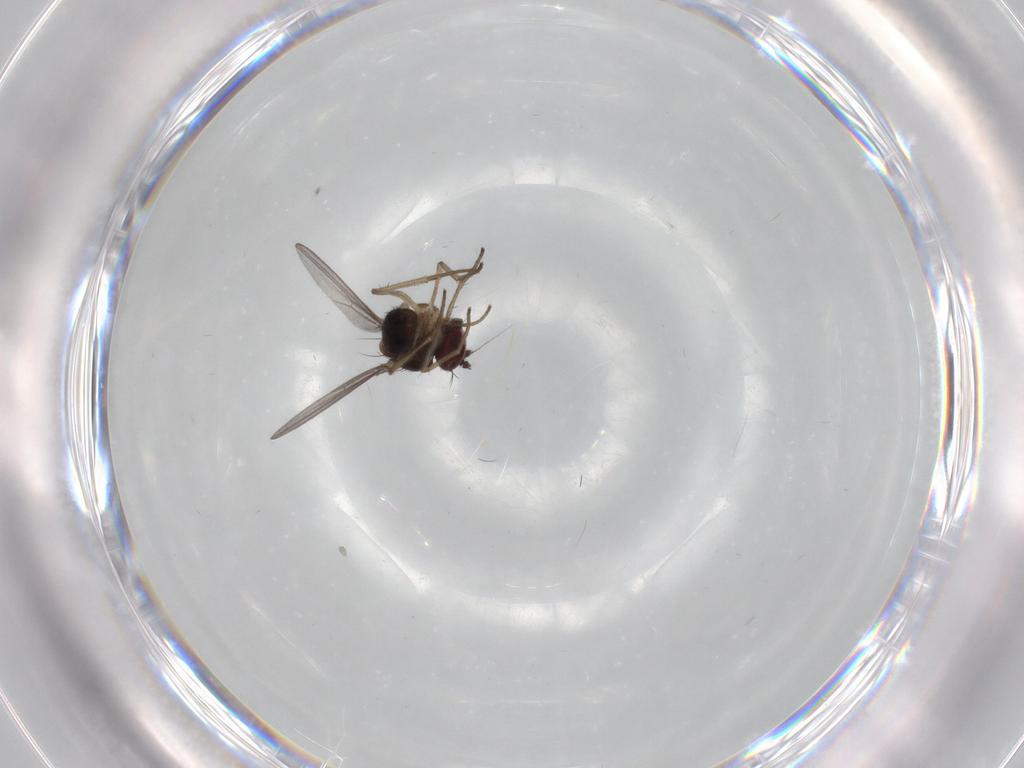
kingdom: Animalia
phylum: Arthropoda
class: Insecta
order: Diptera
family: Dolichopodidae
